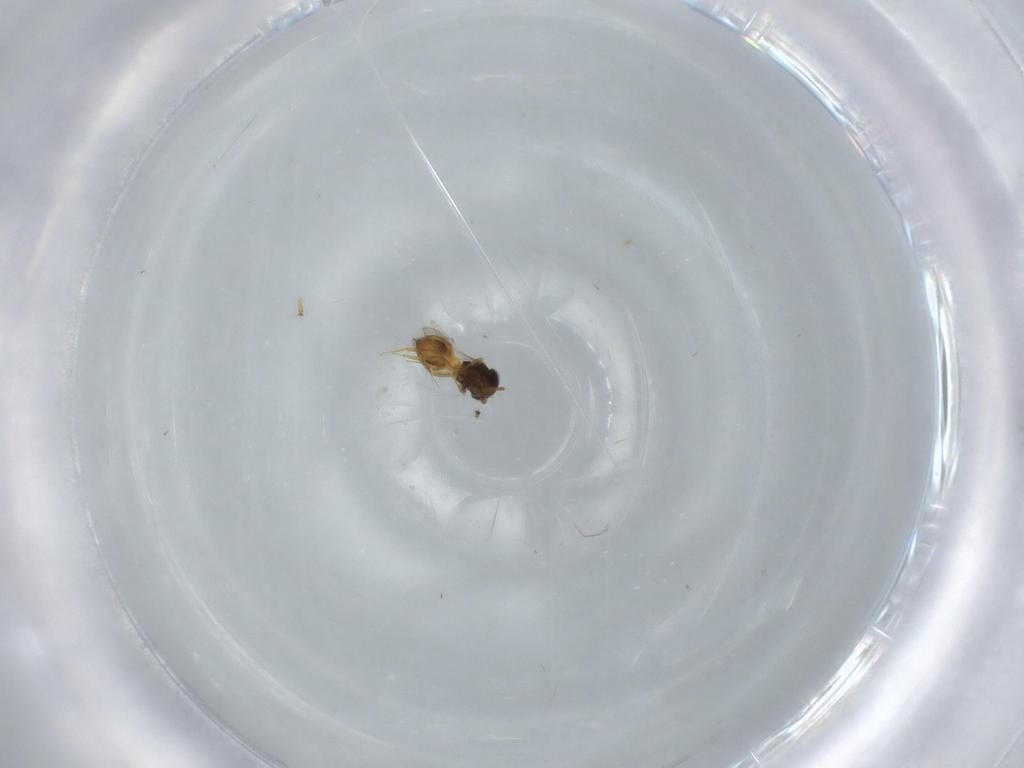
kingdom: Animalia
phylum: Arthropoda
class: Insecta
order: Hymenoptera
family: Scelionidae
